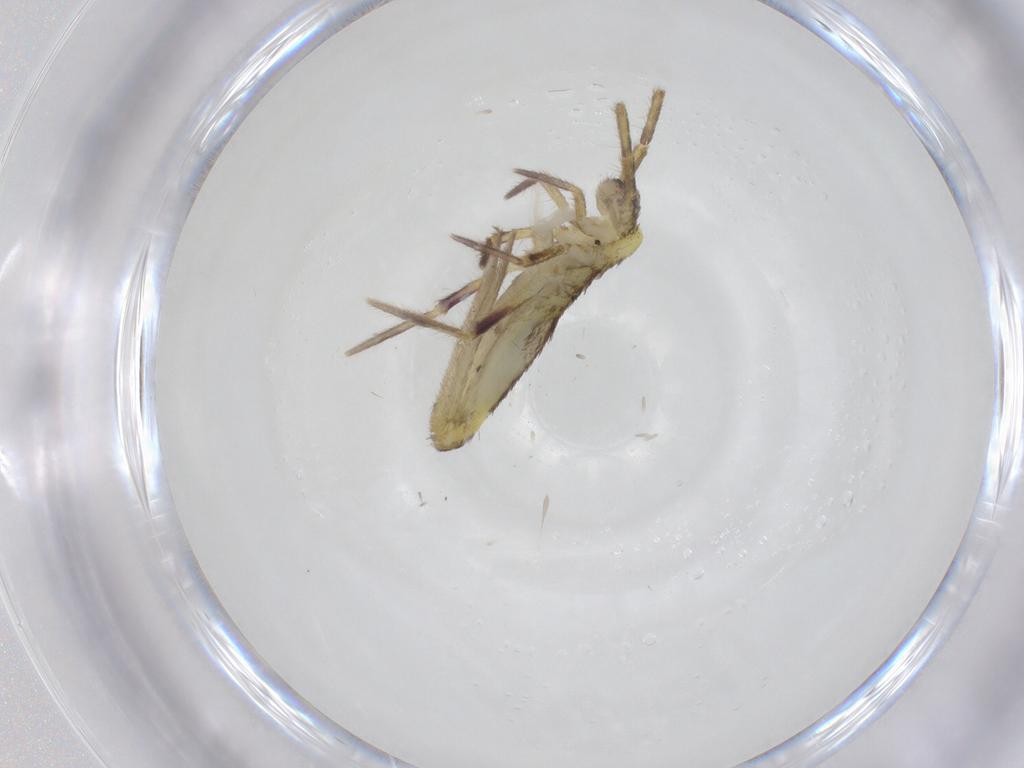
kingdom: Animalia
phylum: Arthropoda
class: Collembola
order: Entomobryomorpha
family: Entomobryidae
